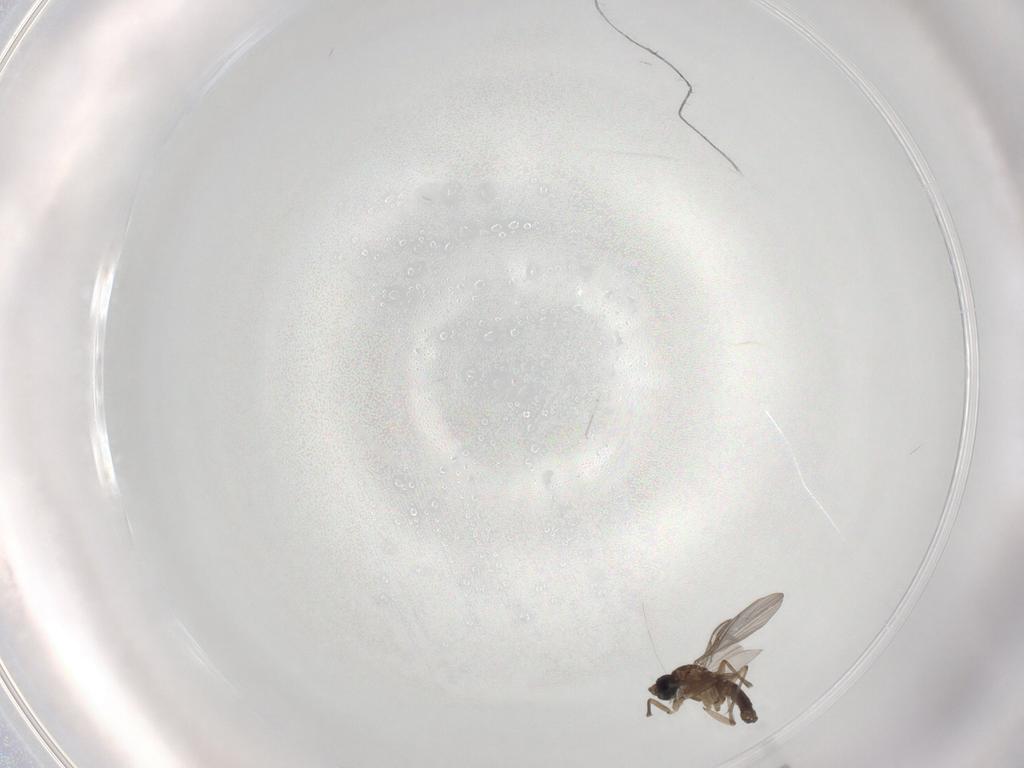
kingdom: Animalia
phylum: Arthropoda
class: Insecta
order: Diptera
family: Sciaridae
